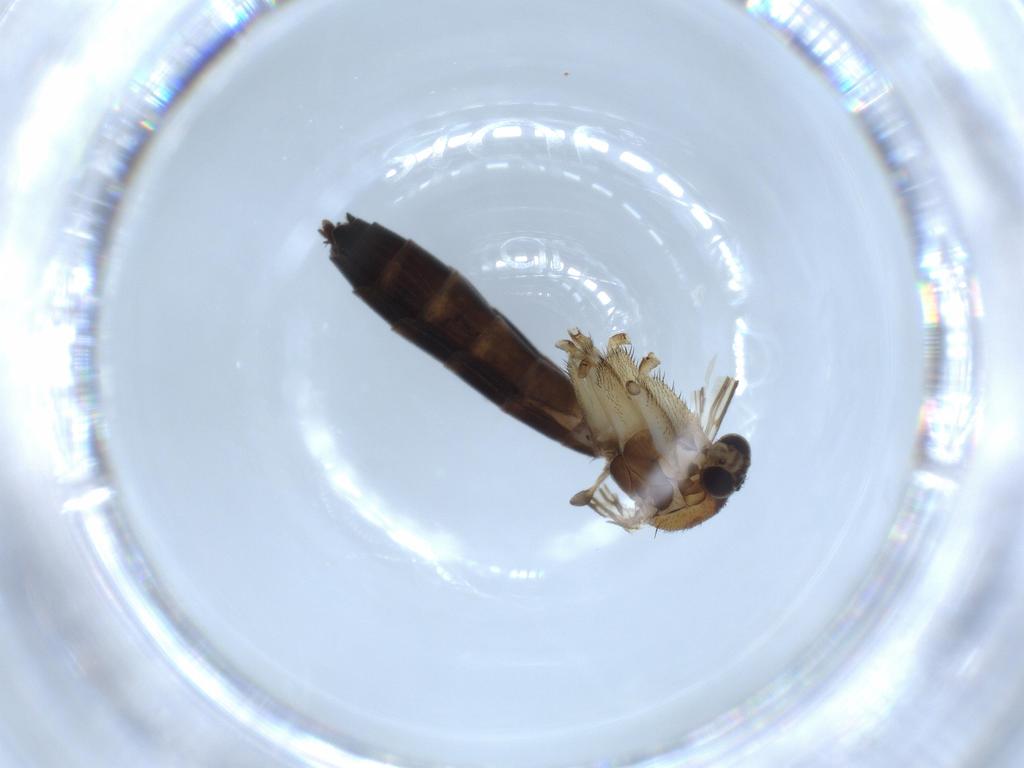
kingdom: Animalia
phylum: Arthropoda
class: Insecta
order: Diptera
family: Keroplatidae
